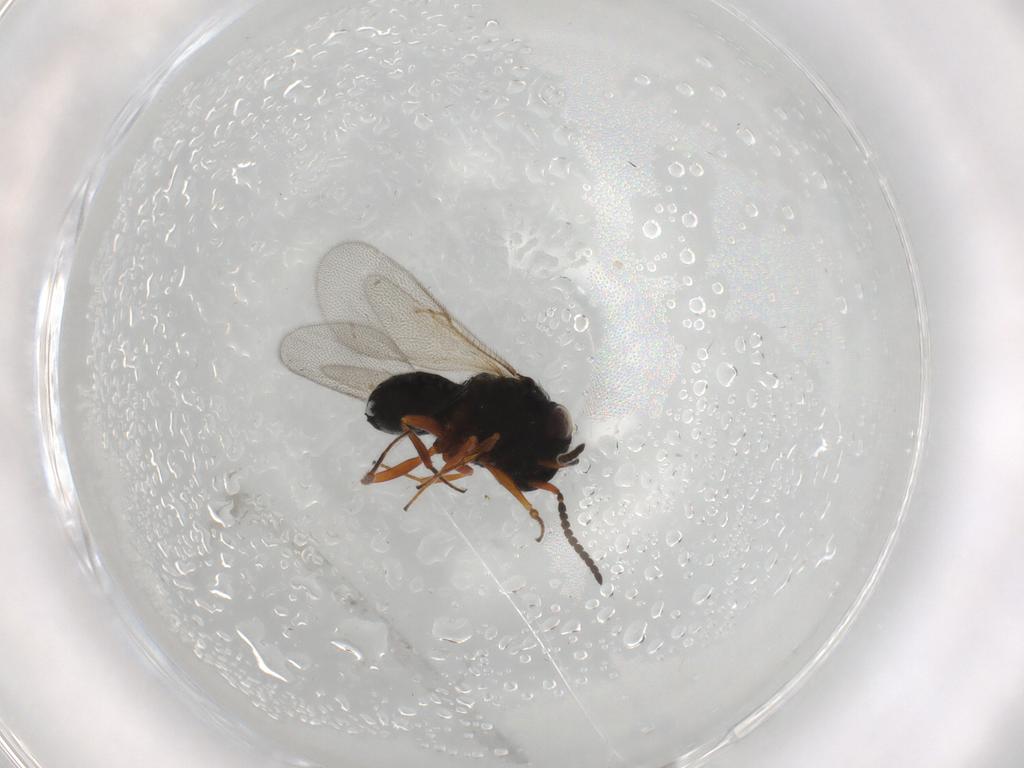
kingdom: Animalia
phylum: Arthropoda
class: Insecta
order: Hymenoptera
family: Scelionidae
